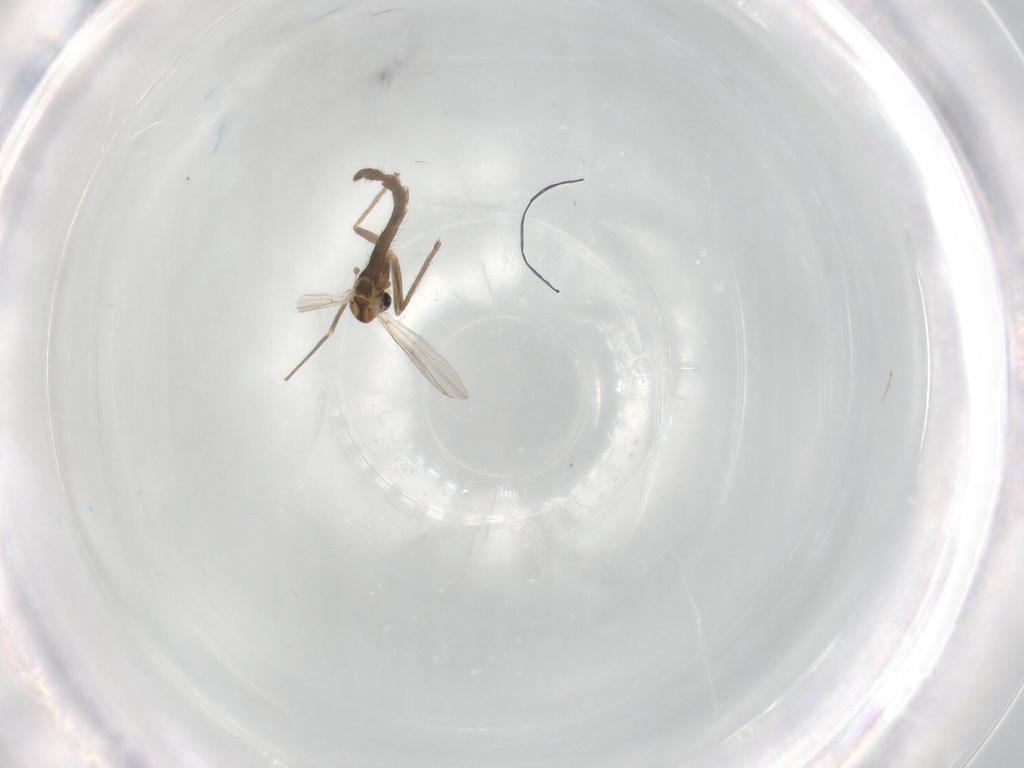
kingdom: Animalia
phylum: Arthropoda
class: Insecta
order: Diptera
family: Chironomidae
